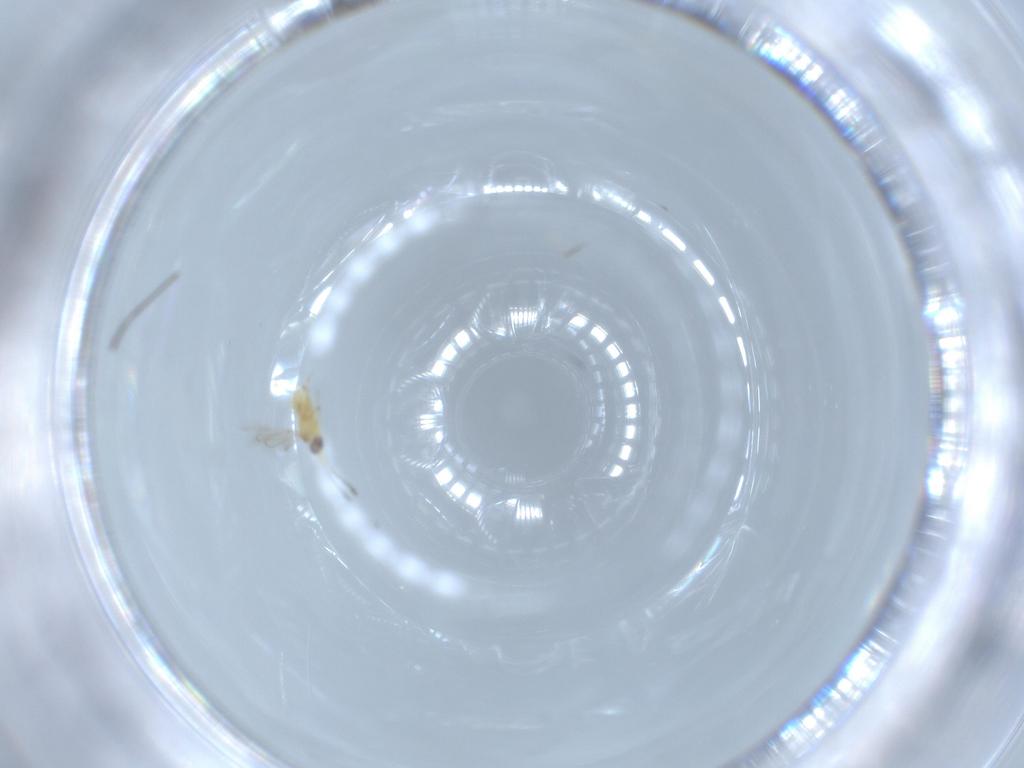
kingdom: Animalia
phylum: Arthropoda
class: Insecta
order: Hymenoptera
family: Mymaridae
